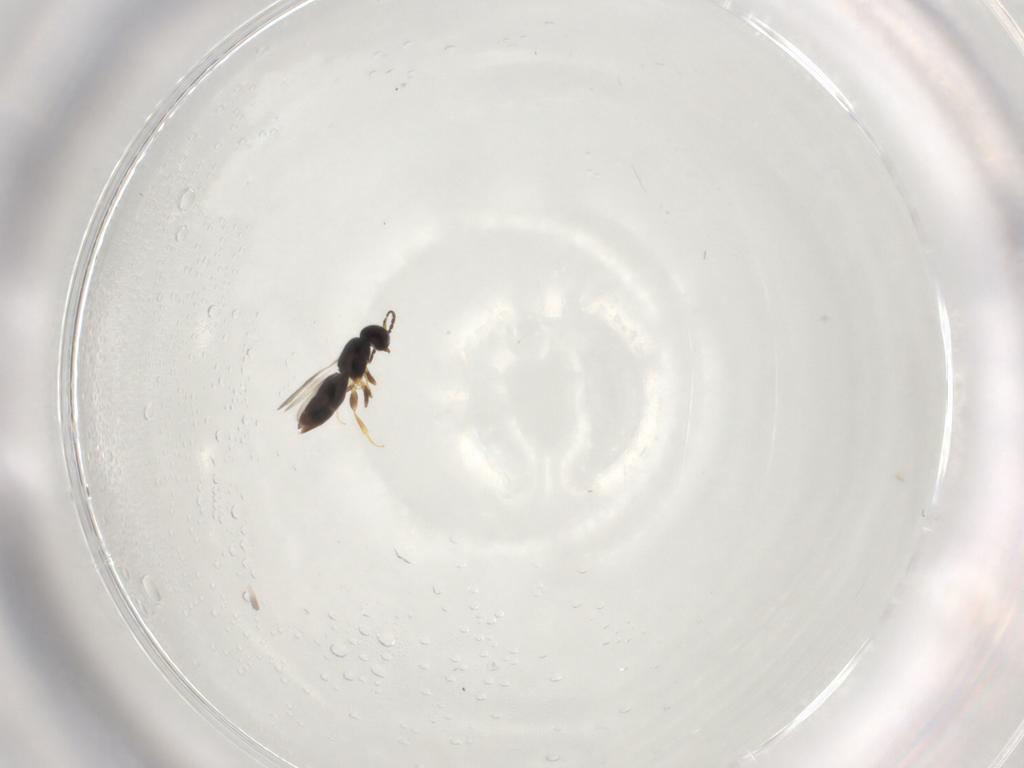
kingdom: Animalia
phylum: Arthropoda
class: Insecta
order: Hymenoptera
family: Ceraphronidae
